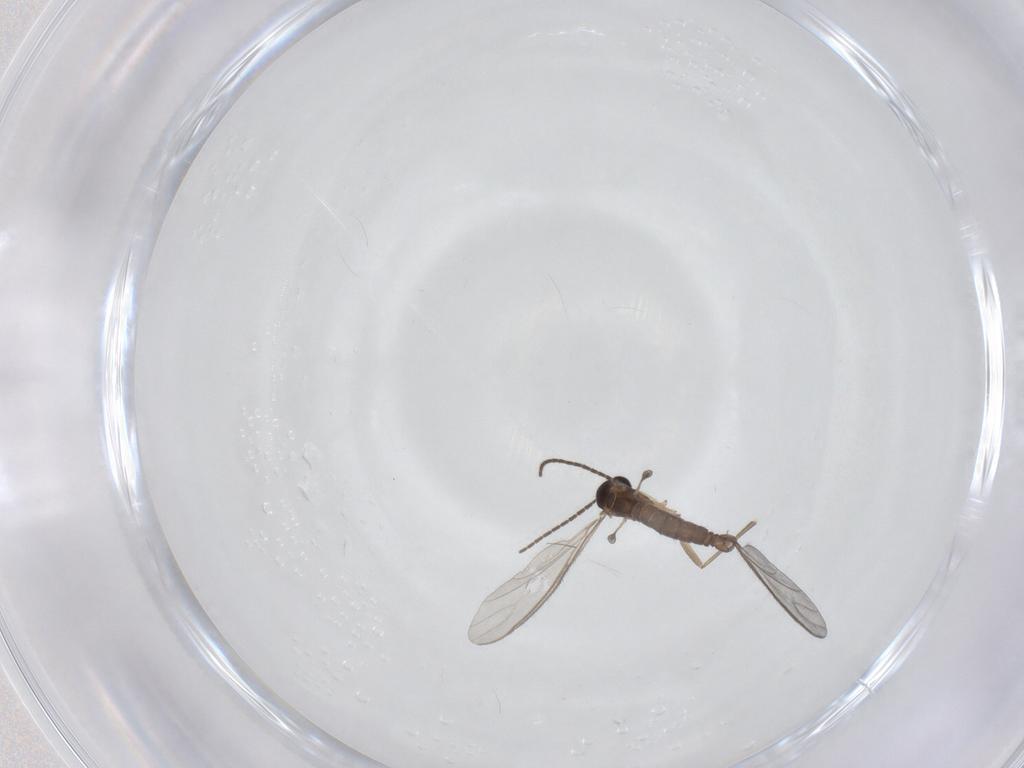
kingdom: Animalia
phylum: Arthropoda
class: Insecta
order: Diptera
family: Sciaridae
